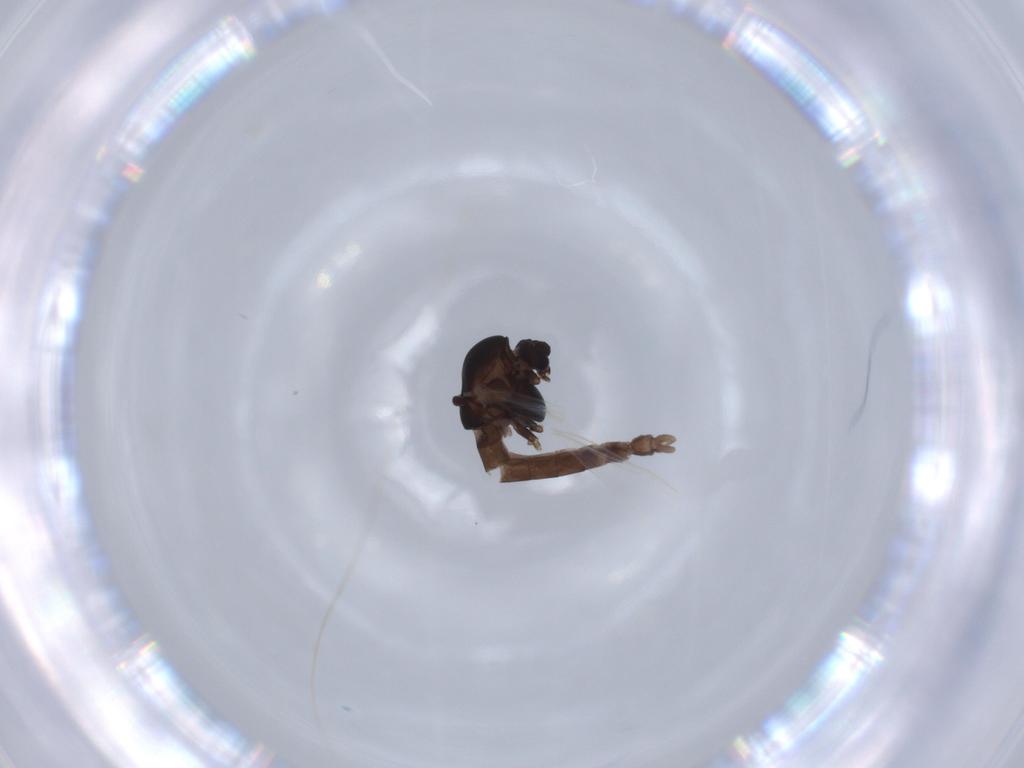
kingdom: Animalia
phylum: Arthropoda
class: Insecta
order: Diptera
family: Chironomidae
